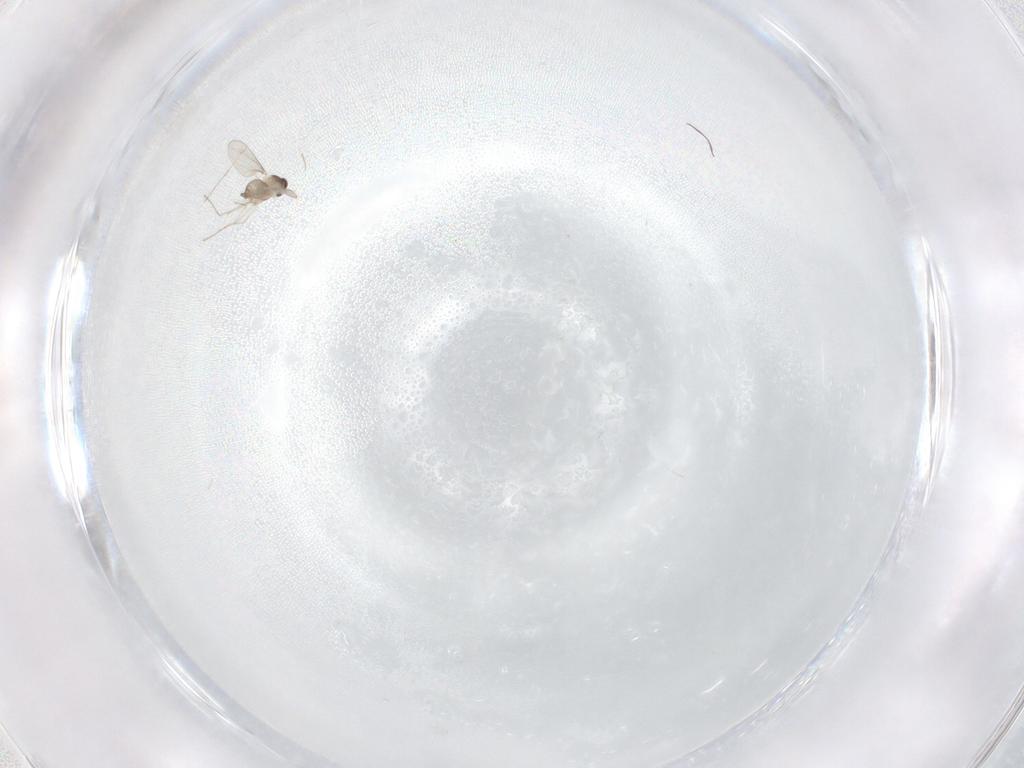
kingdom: Animalia
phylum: Arthropoda
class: Insecta
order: Diptera
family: Cecidomyiidae
